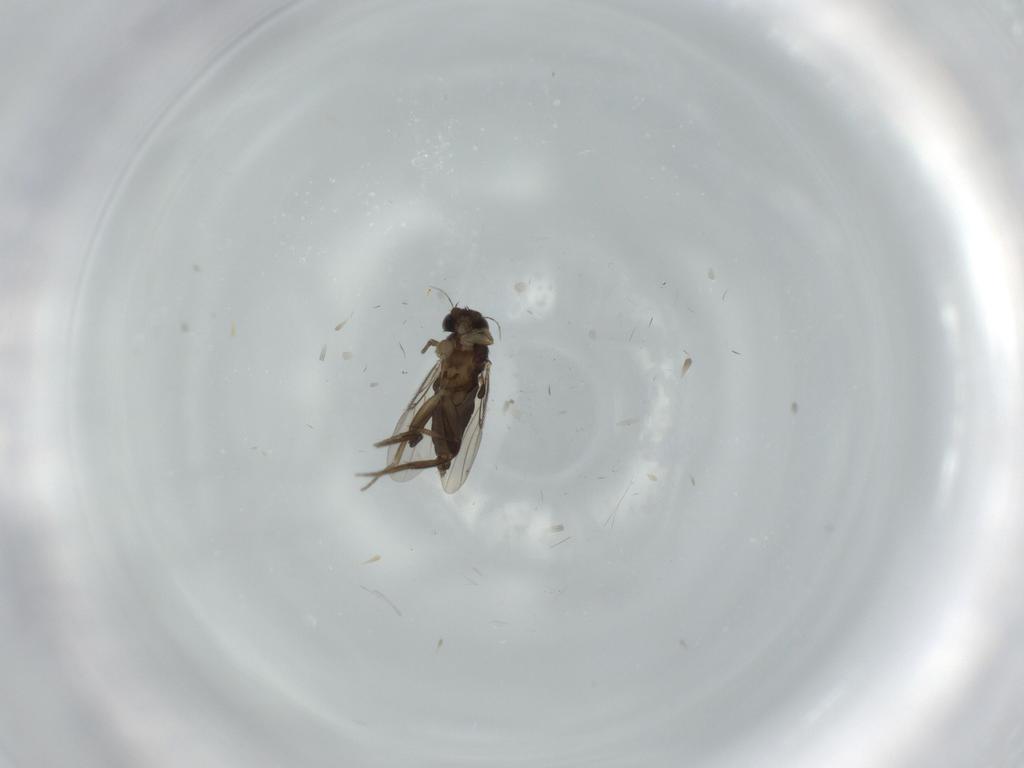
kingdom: Animalia
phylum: Arthropoda
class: Insecta
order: Diptera
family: Phoridae
